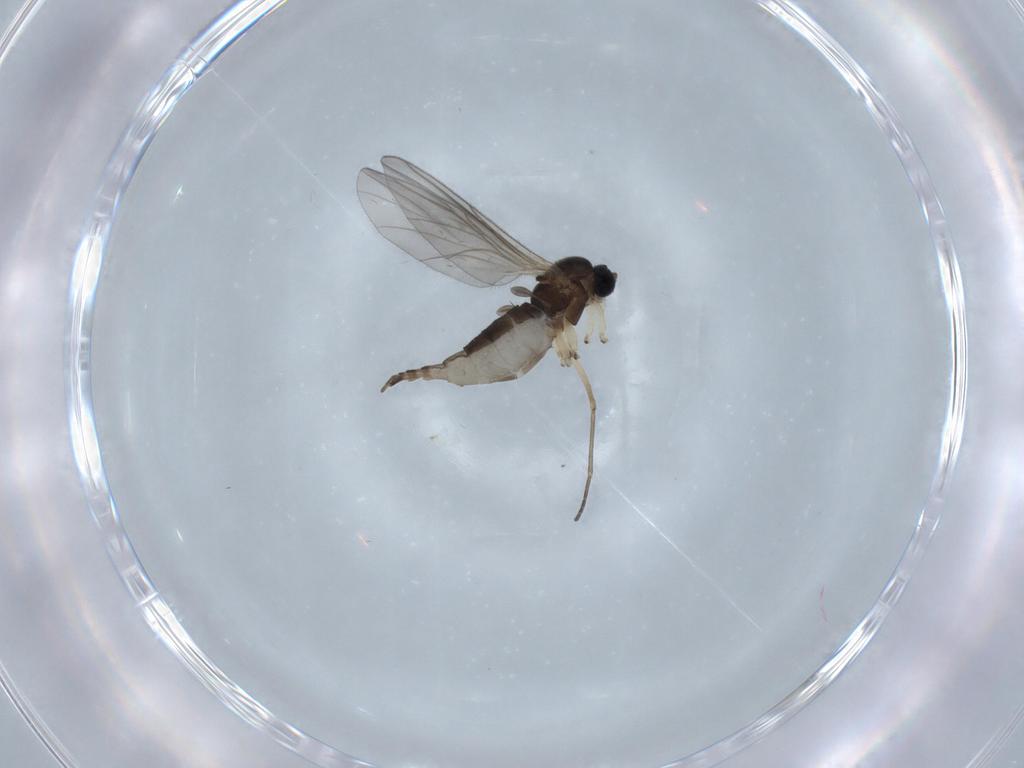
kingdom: Animalia
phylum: Arthropoda
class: Insecta
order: Diptera
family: Sciaridae
